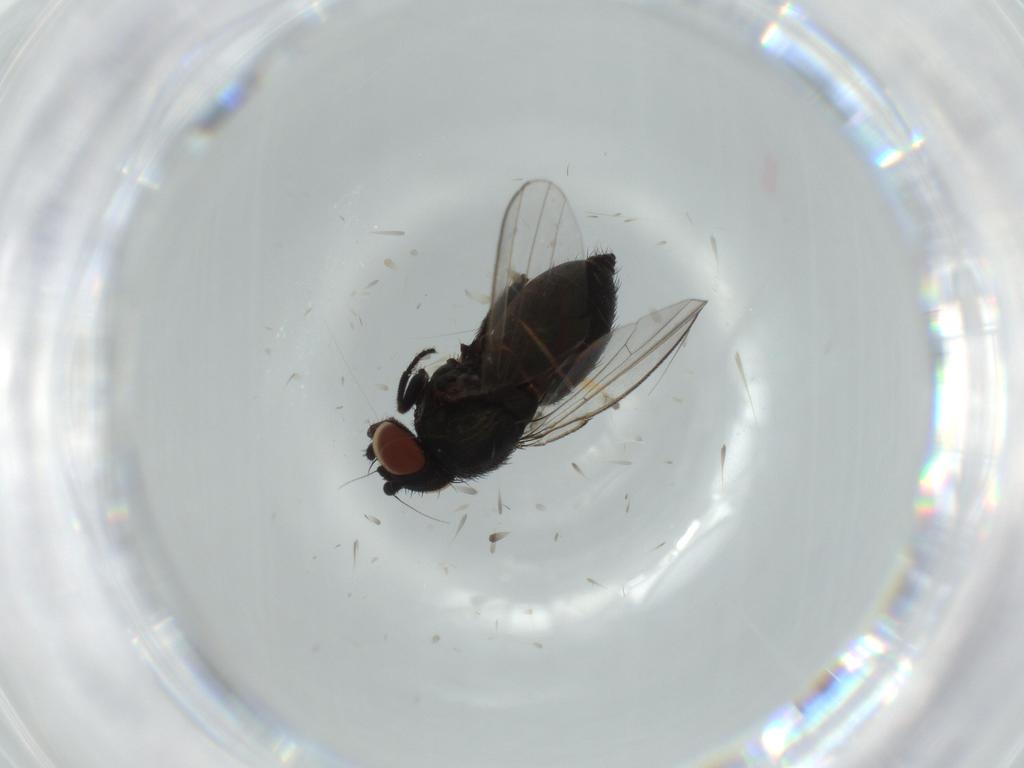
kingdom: Animalia
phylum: Arthropoda
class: Insecta
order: Diptera
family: Milichiidae
